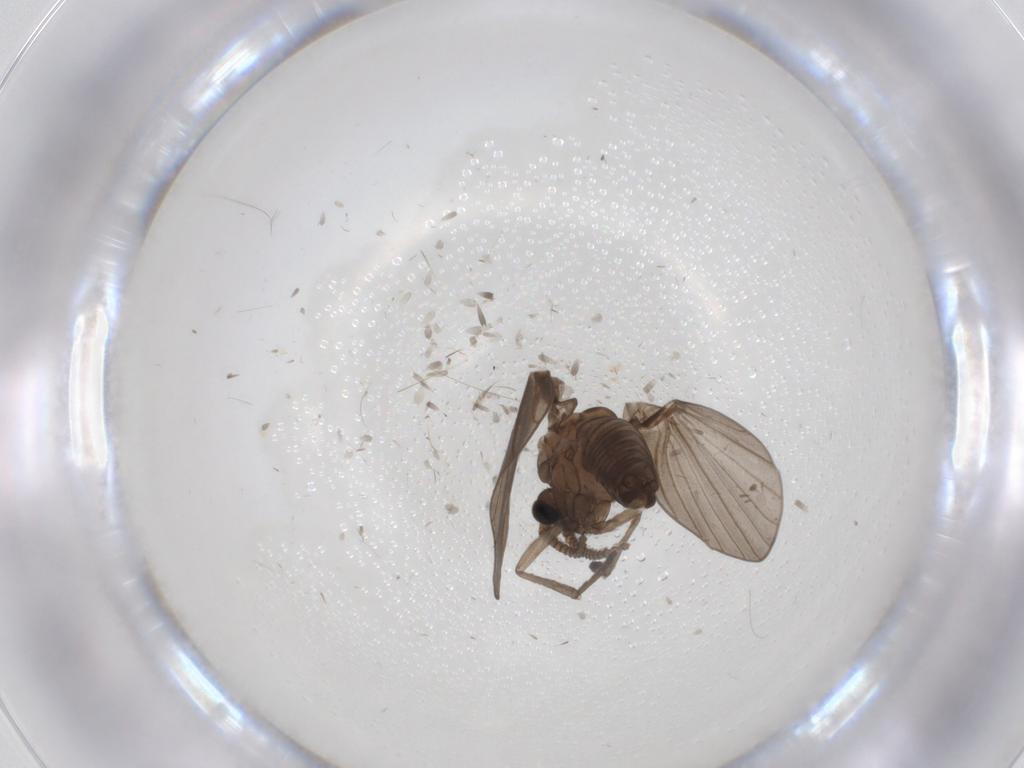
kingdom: Animalia
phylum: Arthropoda
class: Insecta
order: Diptera
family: Psychodidae
